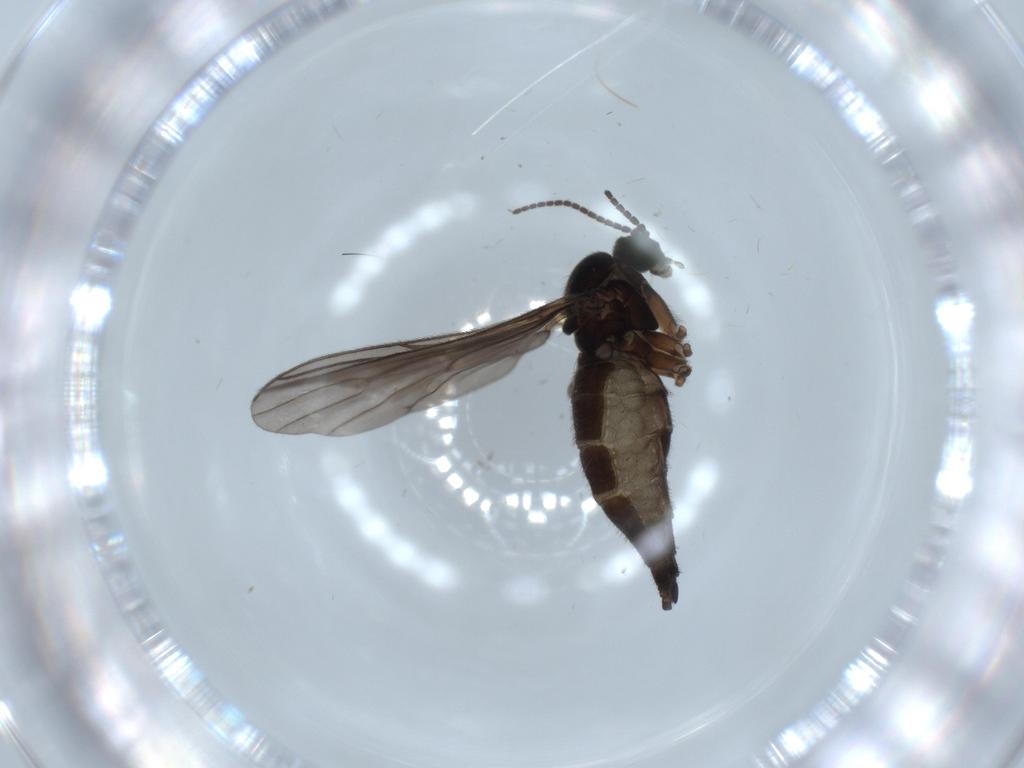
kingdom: Animalia
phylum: Arthropoda
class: Insecta
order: Diptera
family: Sciaridae
